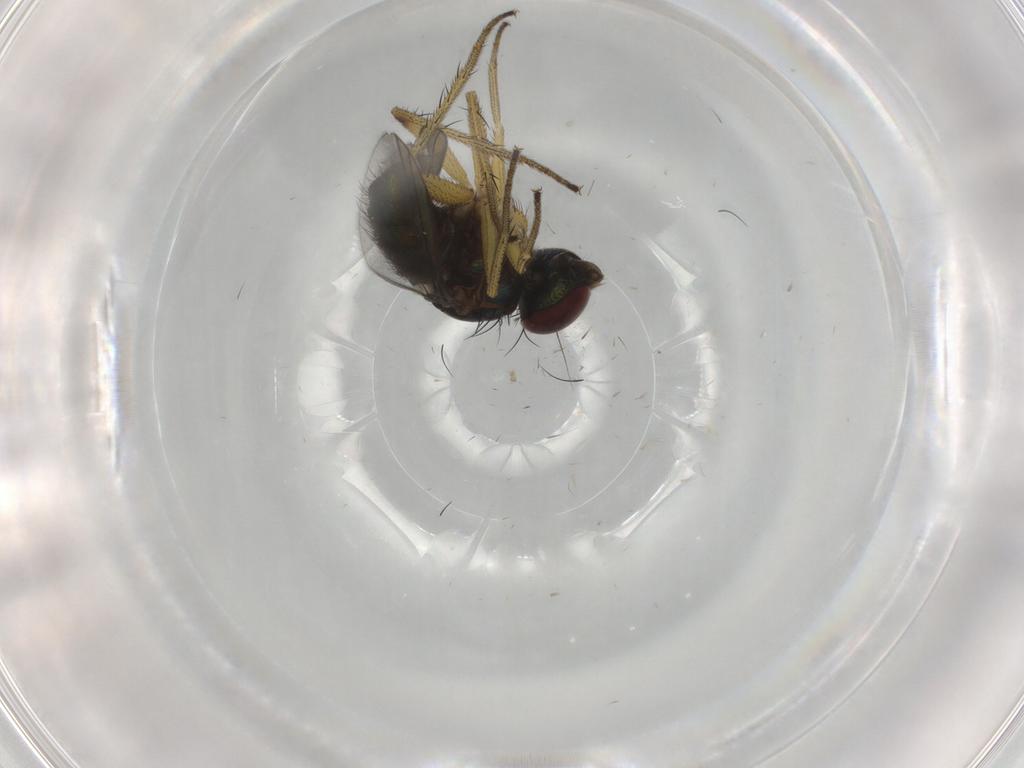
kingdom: Animalia
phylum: Arthropoda
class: Insecta
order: Diptera
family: Dolichopodidae
